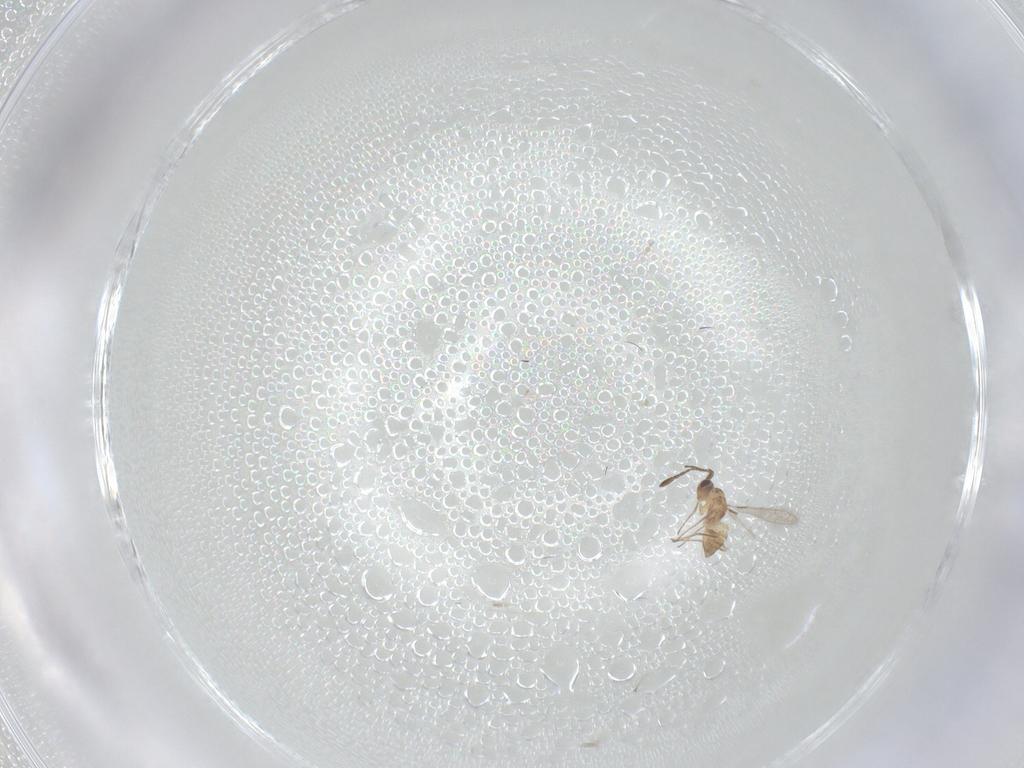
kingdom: Animalia
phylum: Arthropoda
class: Insecta
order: Hymenoptera
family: Mymaridae
